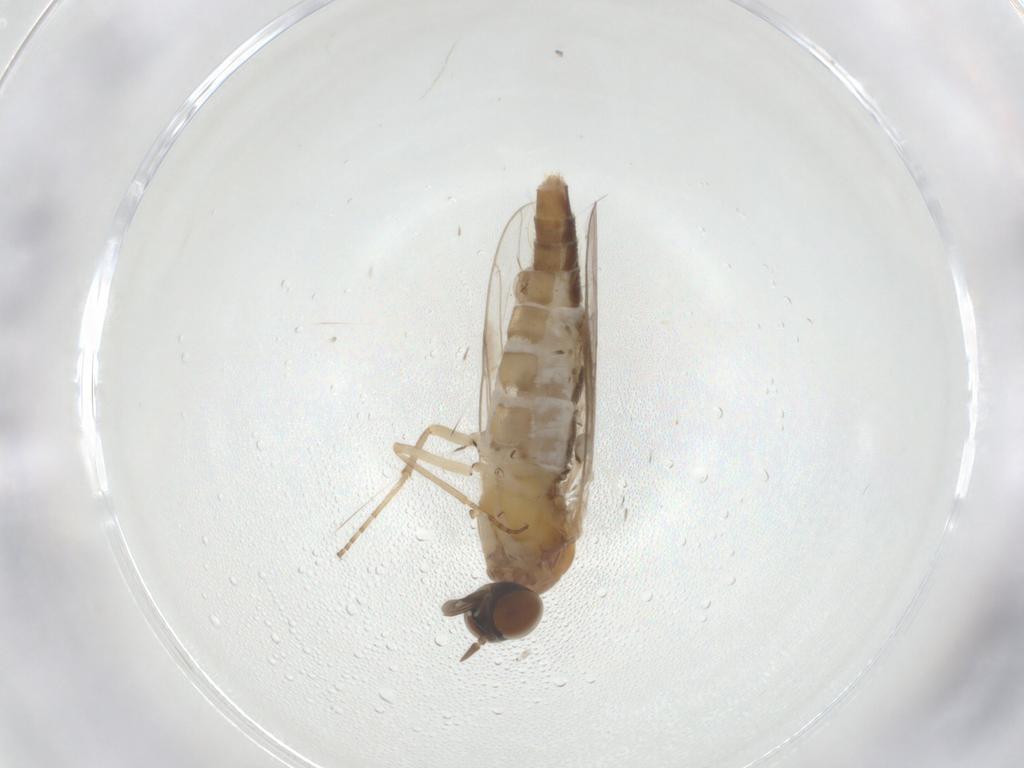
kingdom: Animalia
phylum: Arthropoda
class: Insecta
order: Diptera
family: Scenopinidae
